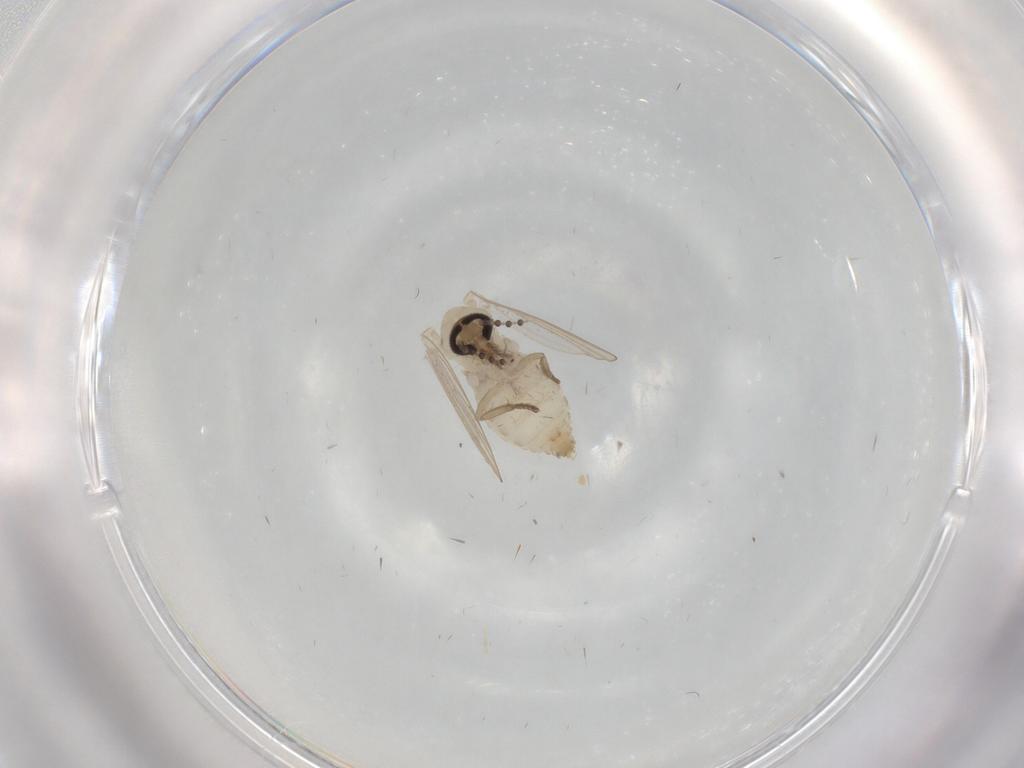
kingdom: Animalia
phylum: Arthropoda
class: Insecta
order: Diptera
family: Psychodidae
